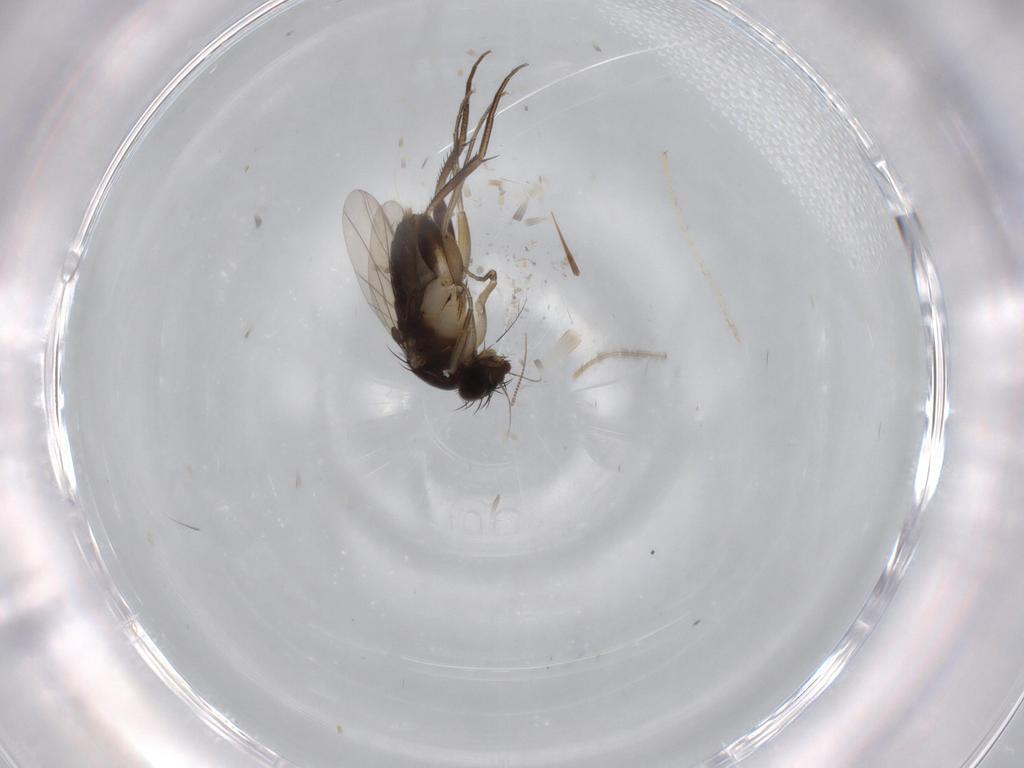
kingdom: Animalia
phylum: Arthropoda
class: Insecta
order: Diptera
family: Phoridae
